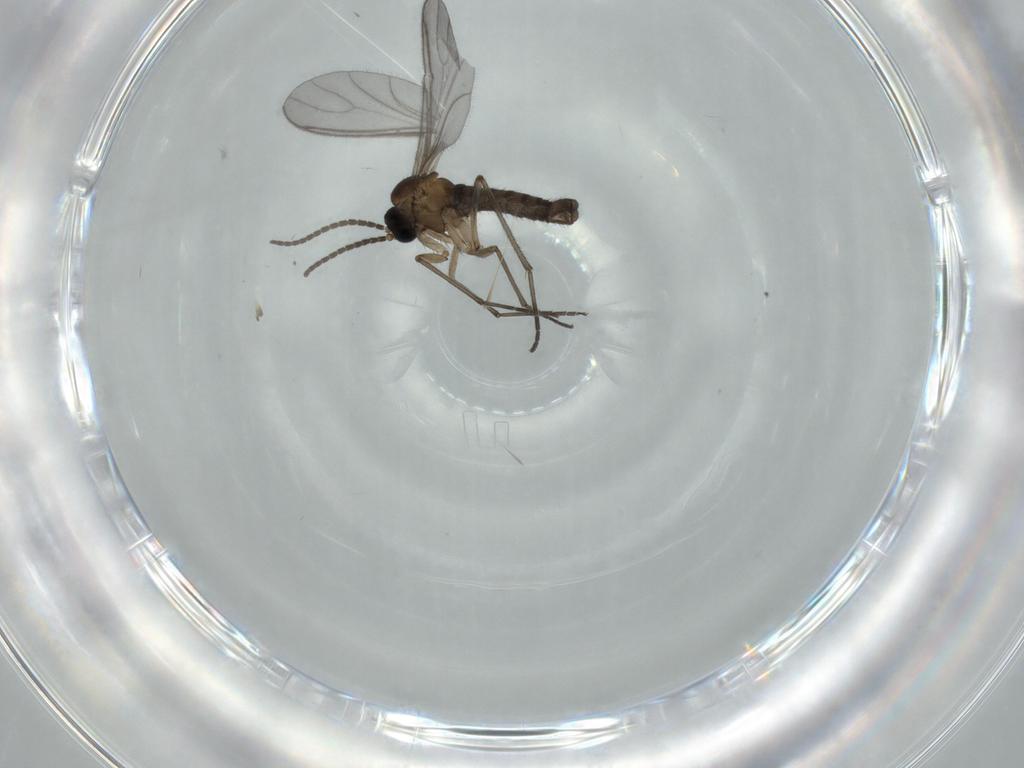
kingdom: Animalia
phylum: Arthropoda
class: Insecta
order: Diptera
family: Sciaridae
